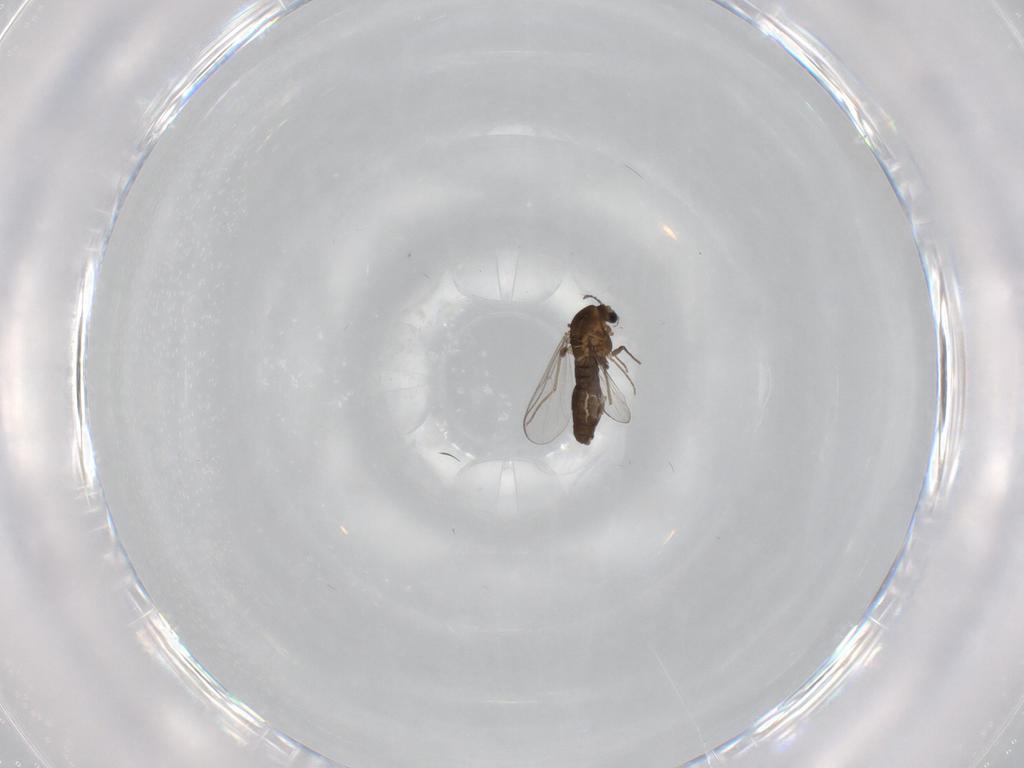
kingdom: Animalia
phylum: Arthropoda
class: Insecta
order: Diptera
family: Chironomidae
